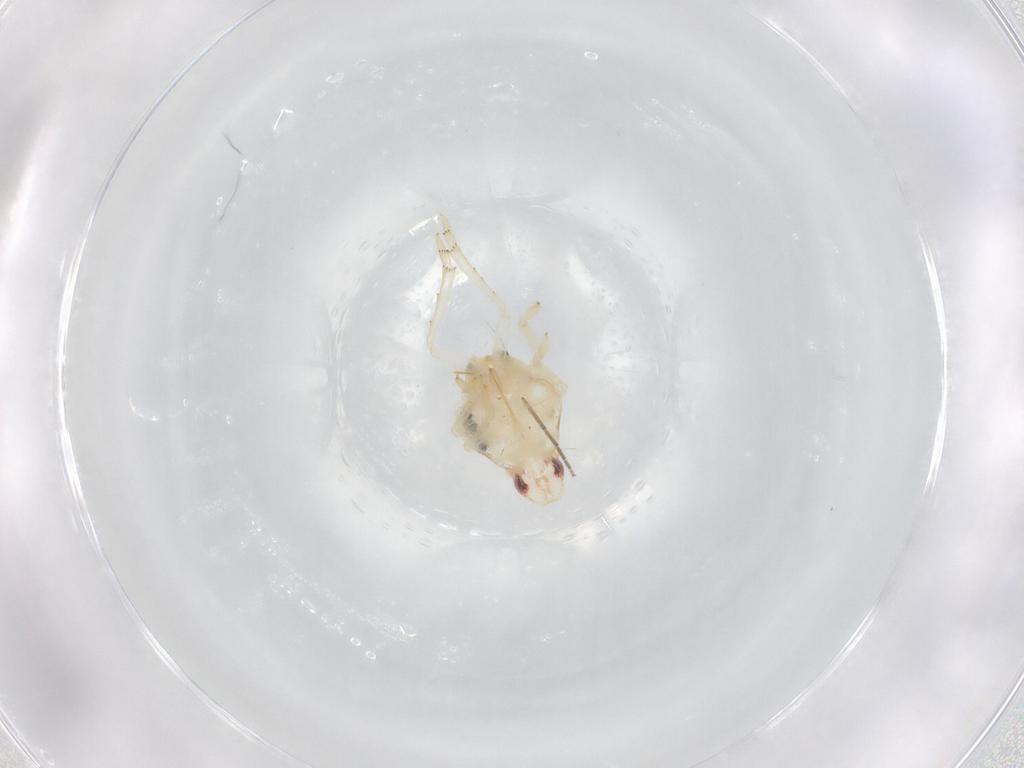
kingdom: Animalia
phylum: Arthropoda
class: Insecta
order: Hemiptera
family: Flatidae
